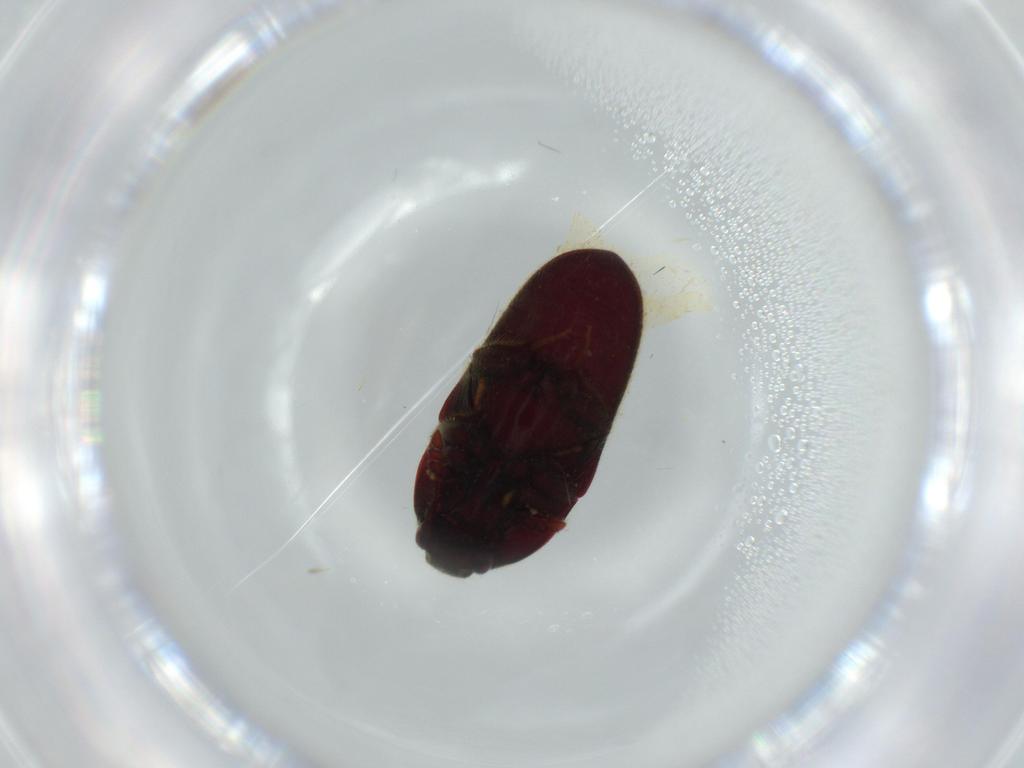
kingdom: Animalia
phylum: Arthropoda
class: Insecta
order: Coleoptera
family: Throscidae
